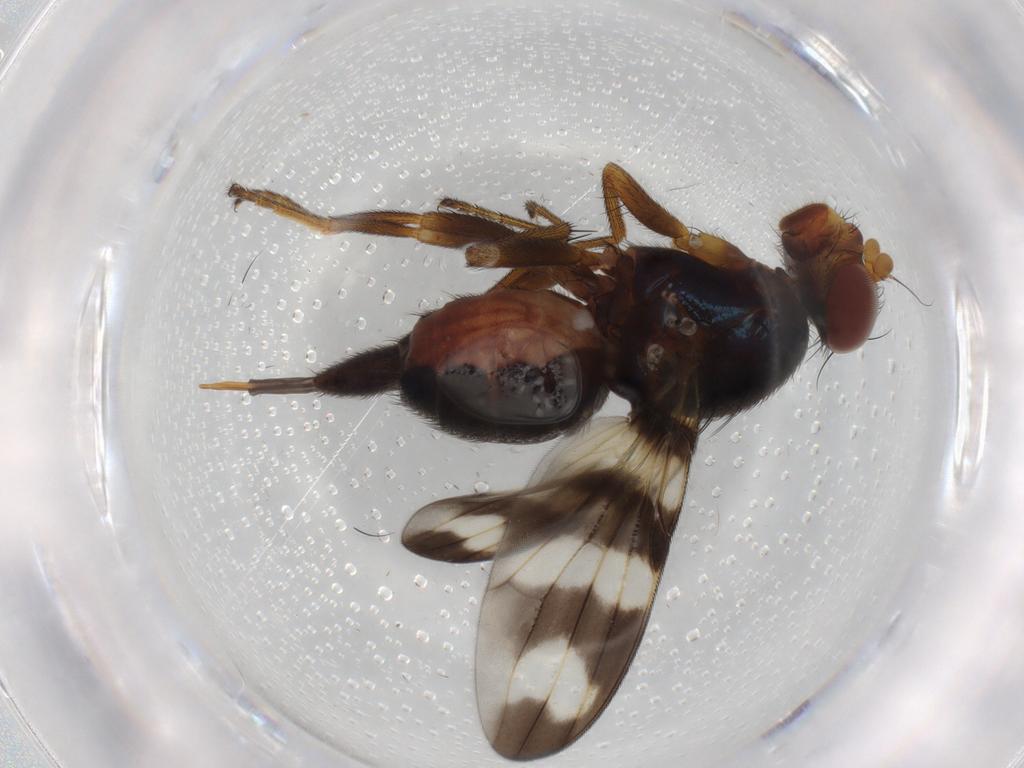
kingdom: Animalia
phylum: Arthropoda
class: Insecta
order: Diptera
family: Ulidiidae
